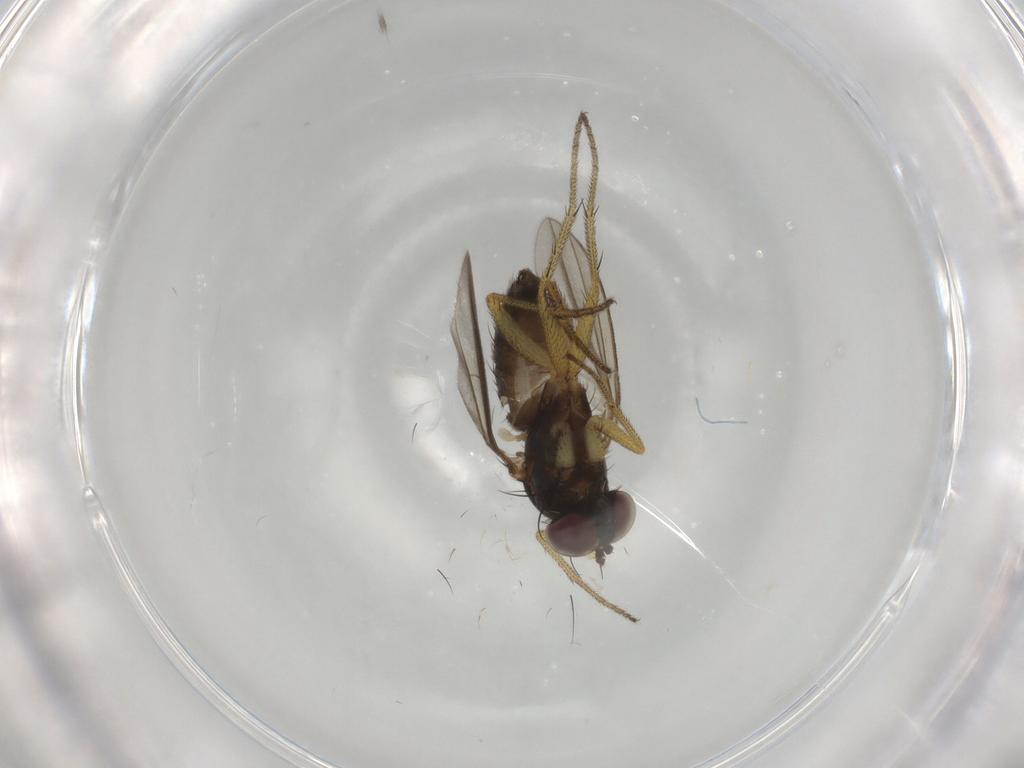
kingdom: Animalia
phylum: Arthropoda
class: Insecta
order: Diptera
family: Dolichopodidae
